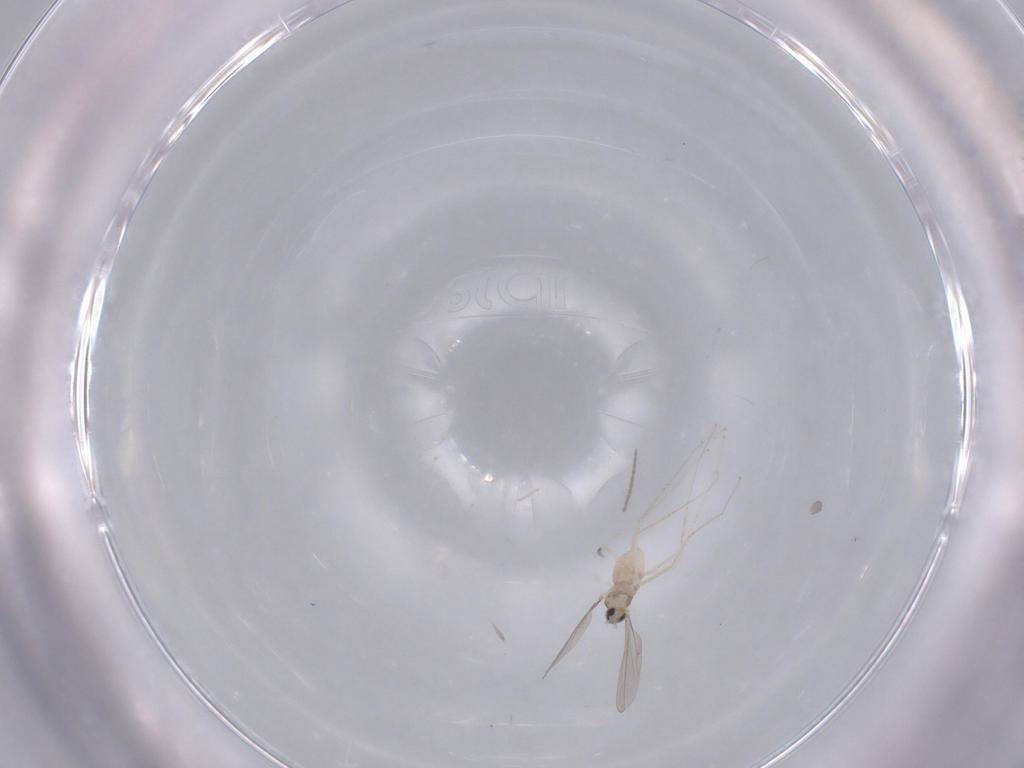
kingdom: Animalia
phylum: Arthropoda
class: Insecta
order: Diptera
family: Cecidomyiidae
